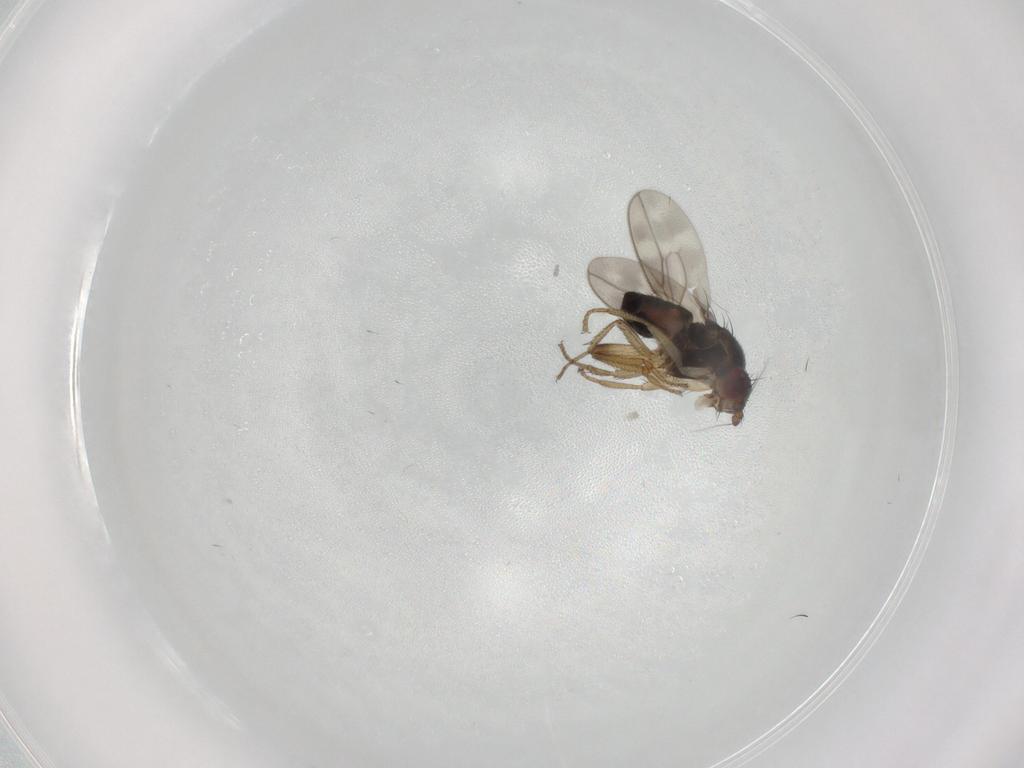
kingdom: Animalia
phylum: Arthropoda
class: Insecta
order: Diptera
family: Sphaeroceridae
